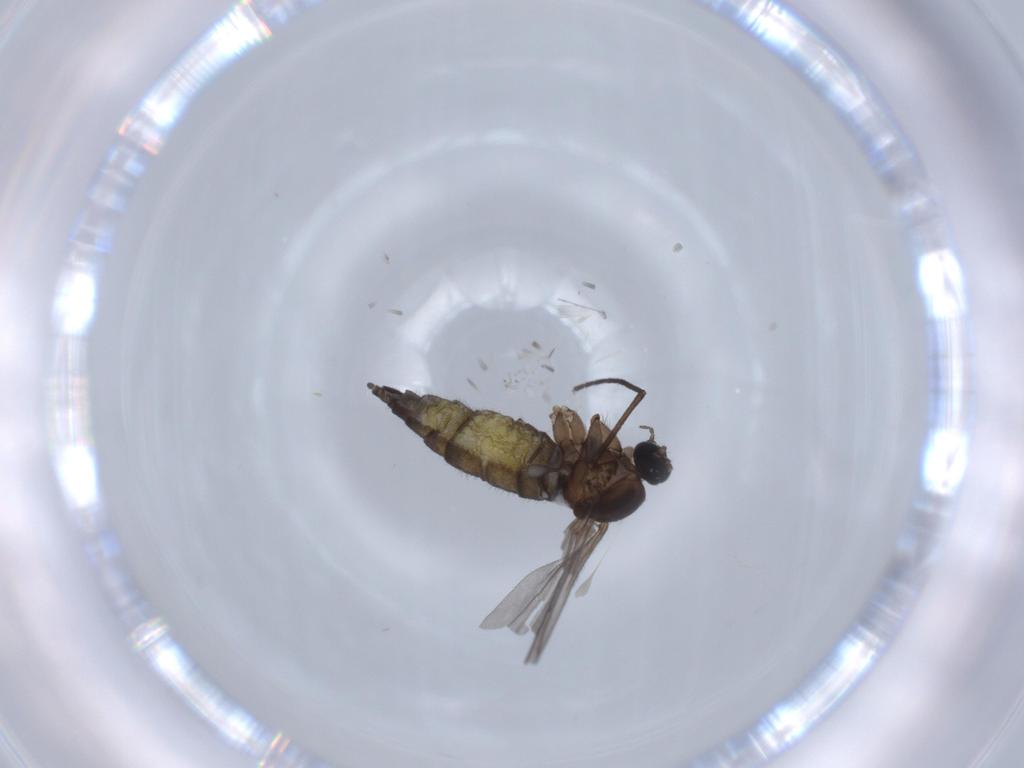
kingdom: Animalia
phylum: Arthropoda
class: Insecta
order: Diptera
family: Sciaridae
